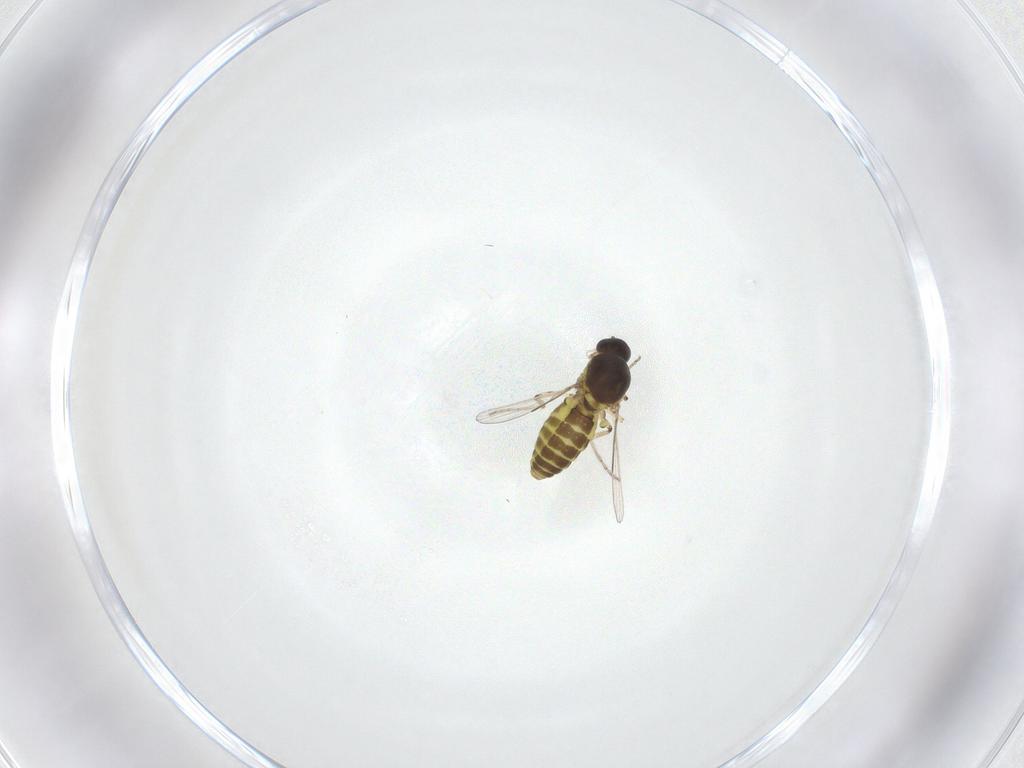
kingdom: Animalia
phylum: Arthropoda
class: Insecta
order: Diptera
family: Ceratopogonidae
